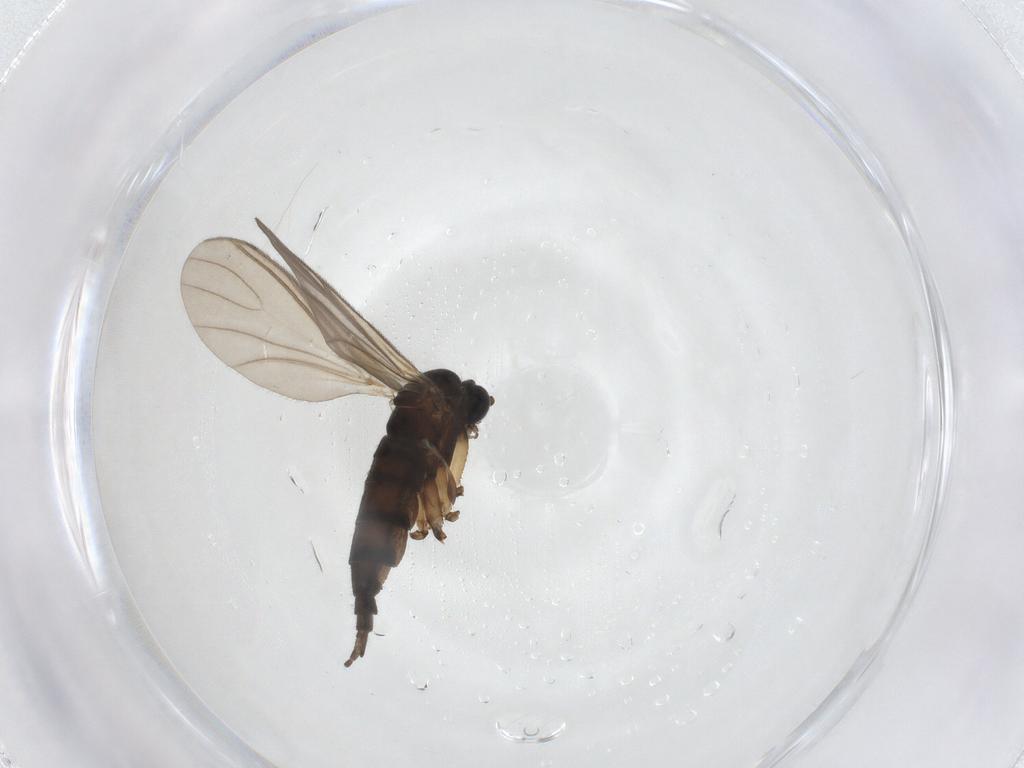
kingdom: Animalia
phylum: Arthropoda
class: Insecta
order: Diptera
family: Sciaridae
